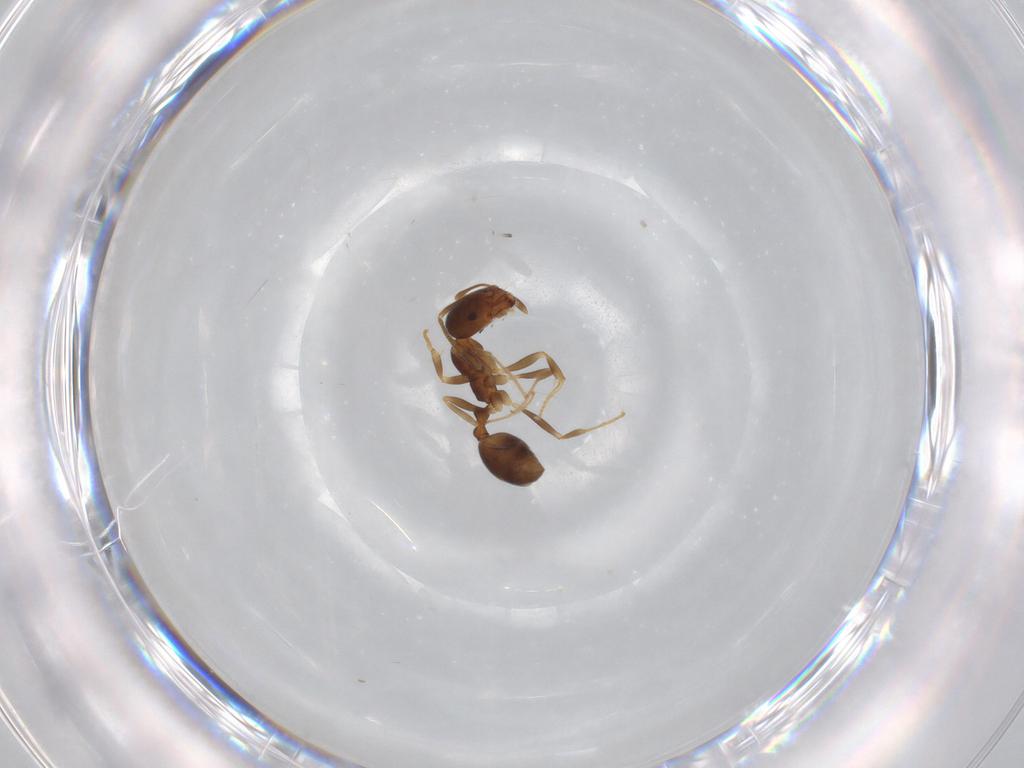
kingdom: Animalia
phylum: Arthropoda
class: Insecta
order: Hymenoptera
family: Formicidae
